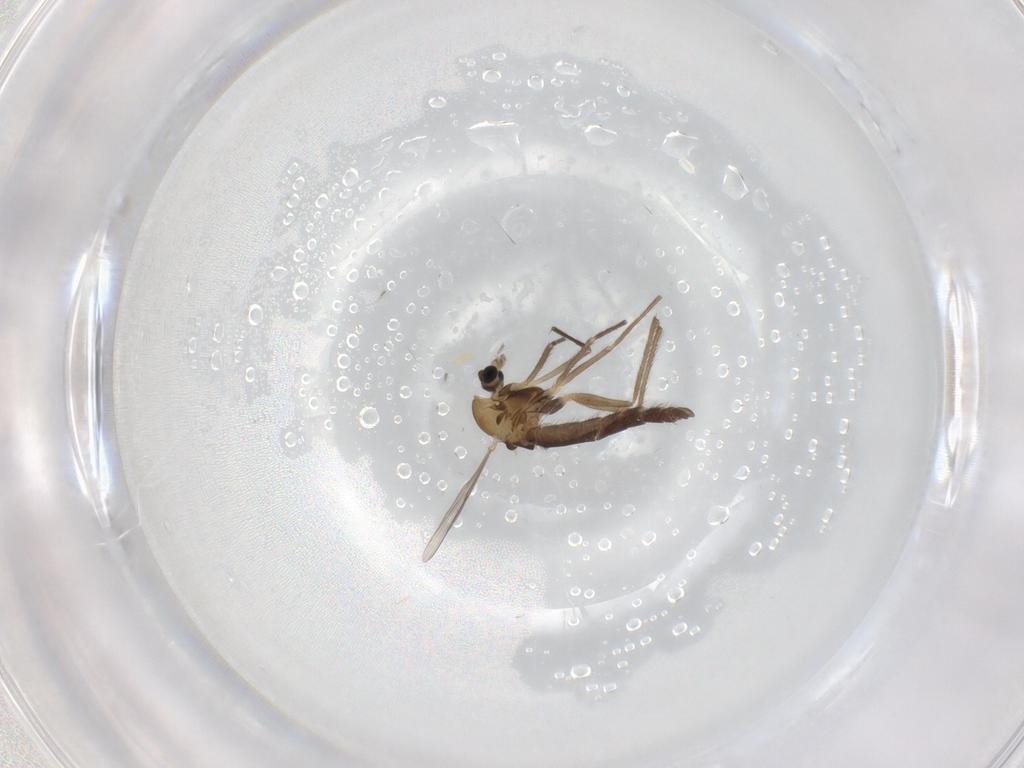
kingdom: Animalia
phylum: Arthropoda
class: Insecta
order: Diptera
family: Chironomidae
